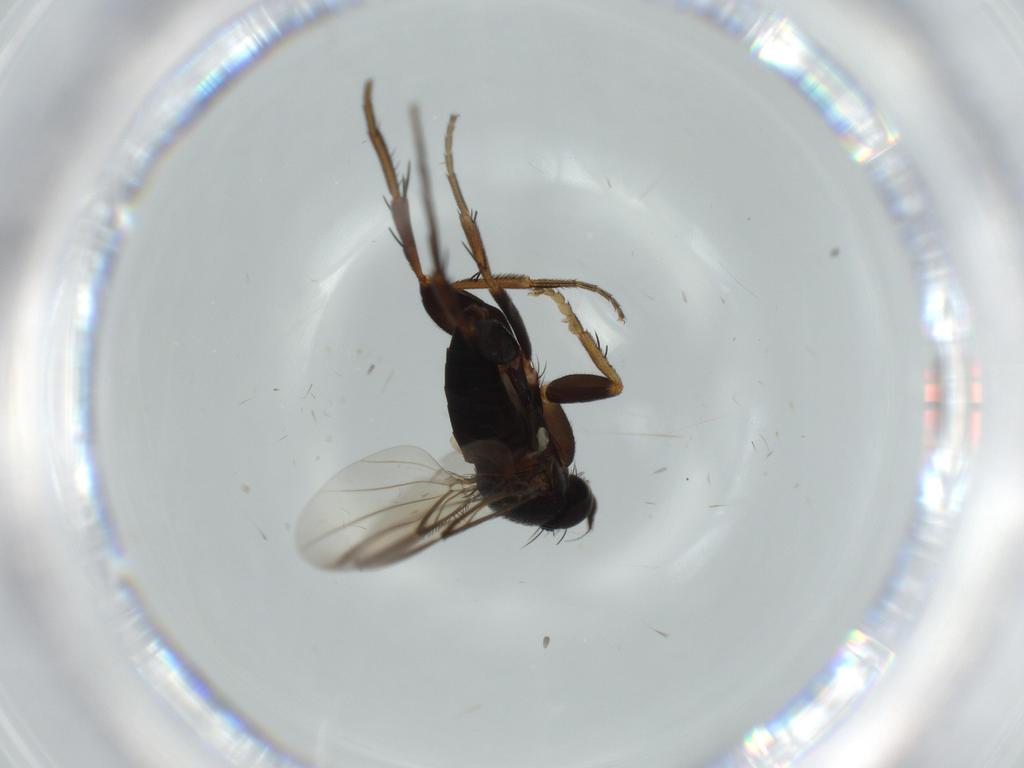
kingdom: Animalia
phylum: Arthropoda
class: Insecta
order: Diptera
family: Phoridae
